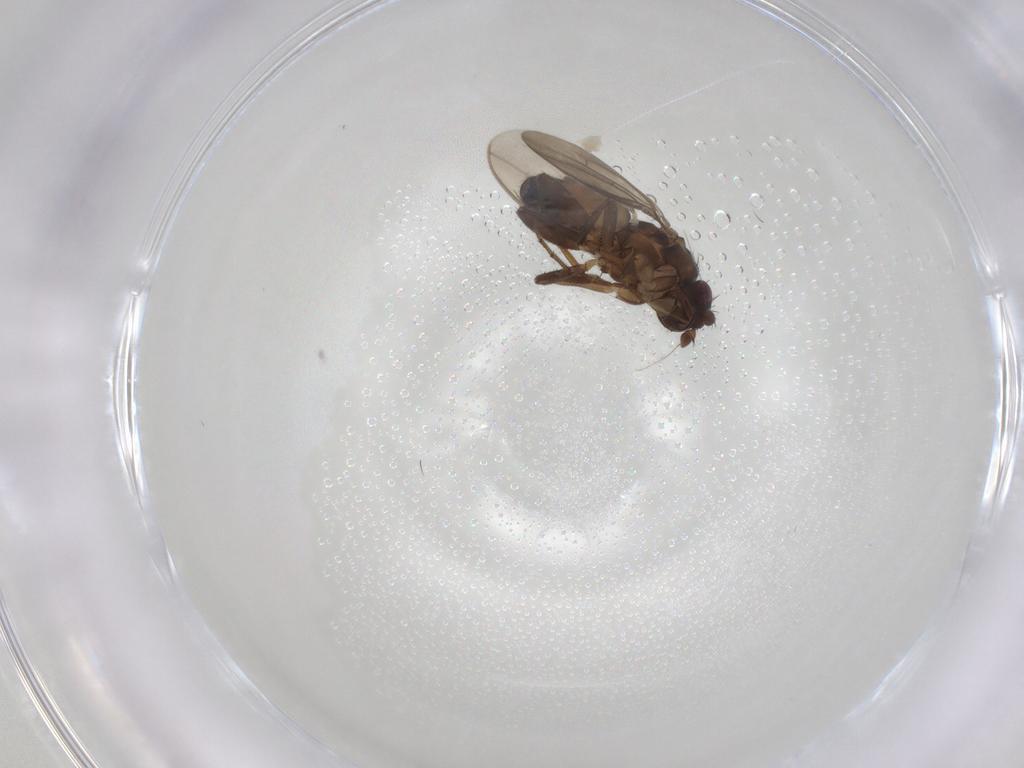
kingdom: Animalia
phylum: Arthropoda
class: Insecta
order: Diptera
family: Sphaeroceridae
